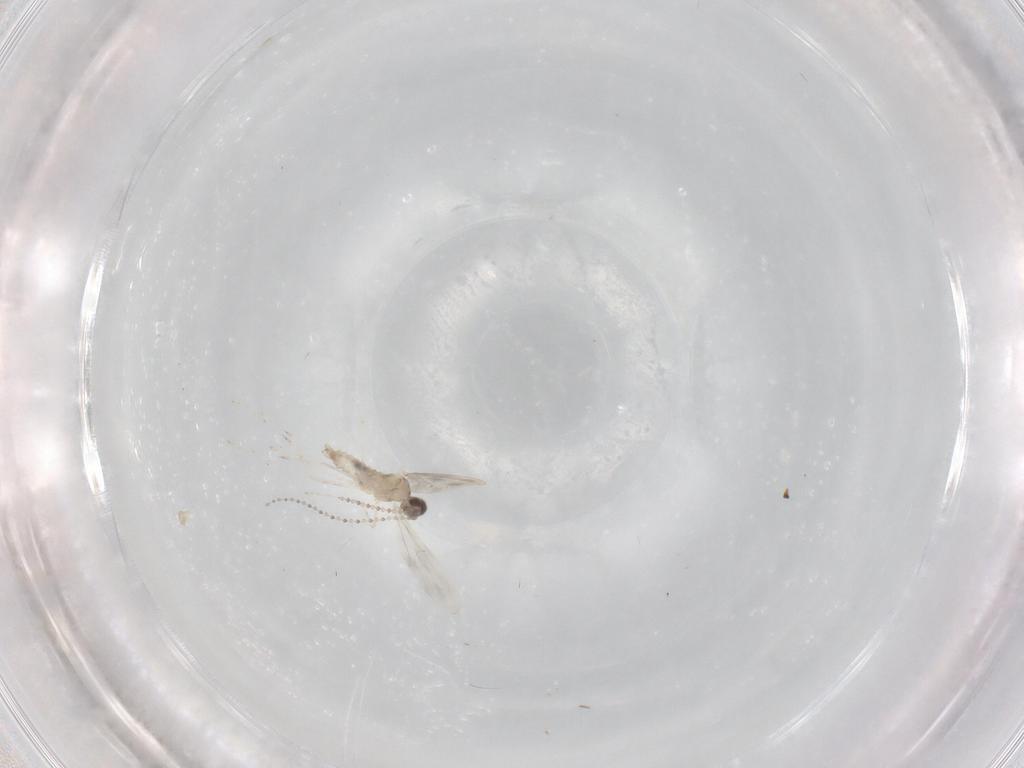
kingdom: Animalia
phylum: Arthropoda
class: Insecta
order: Diptera
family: Cecidomyiidae
